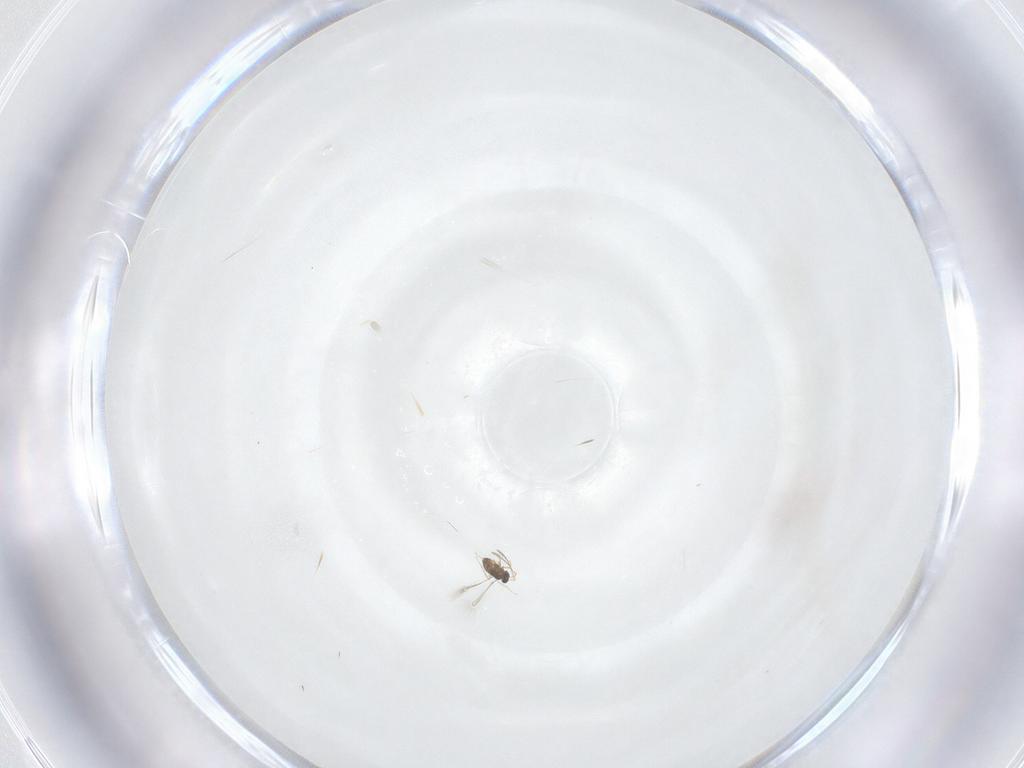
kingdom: Animalia
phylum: Arthropoda
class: Insecta
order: Hymenoptera
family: Mymaridae
